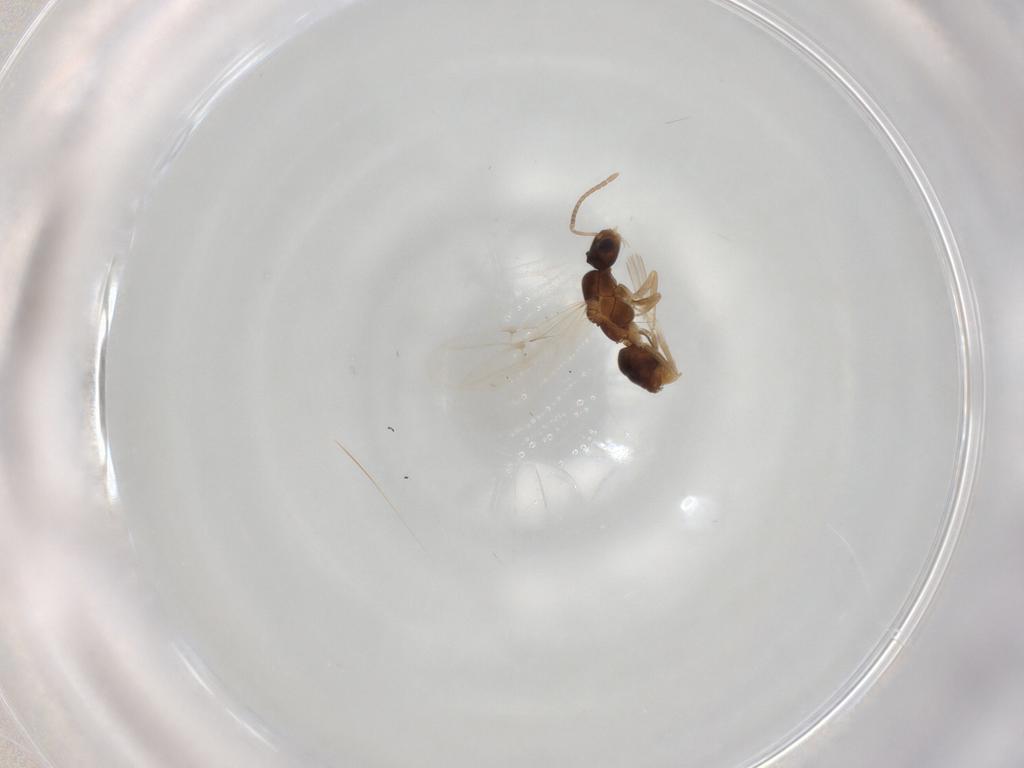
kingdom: Animalia
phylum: Arthropoda
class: Insecta
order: Hymenoptera
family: Formicidae
